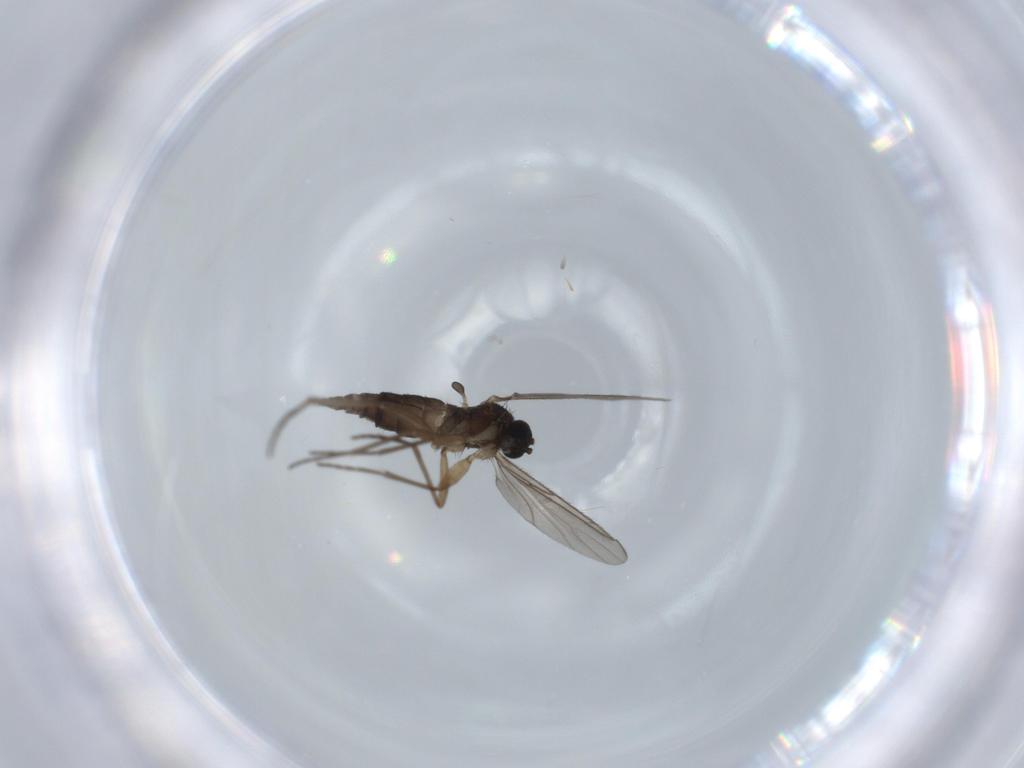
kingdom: Animalia
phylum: Arthropoda
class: Insecta
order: Diptera
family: Sciaridae
